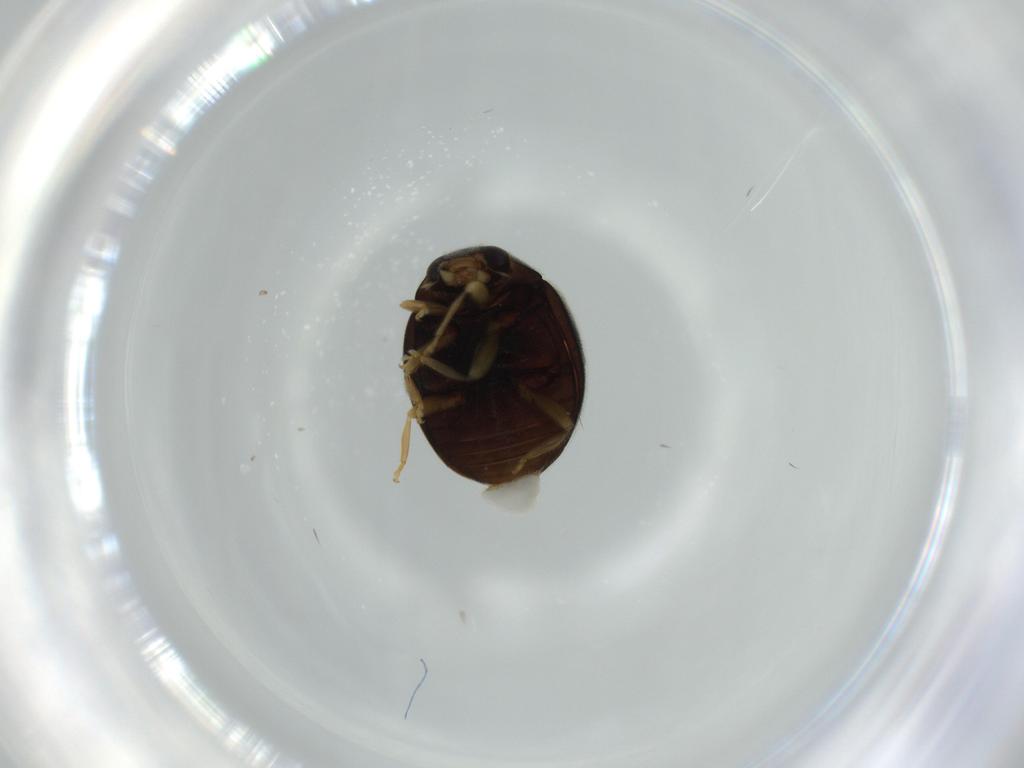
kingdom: Animalia
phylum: Arthropoda
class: Insecta
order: Coleoptera
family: Coccinellidae
